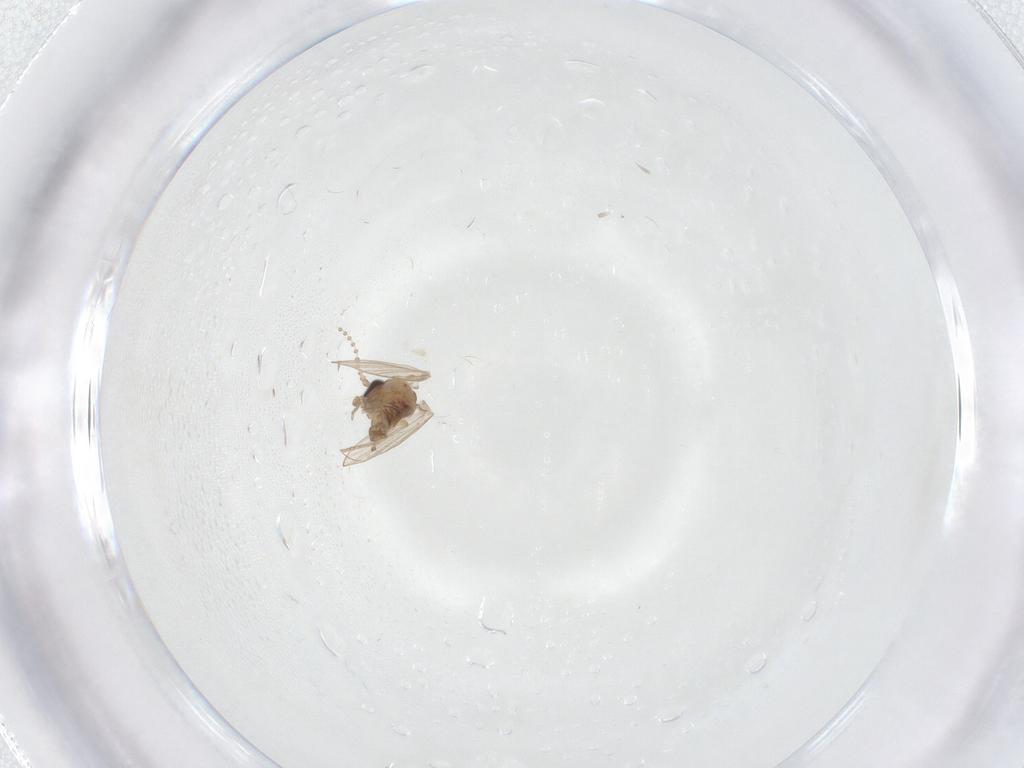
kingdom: Animalia
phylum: Arthropoda
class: Insecta
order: Diptera
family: Psychodidae
